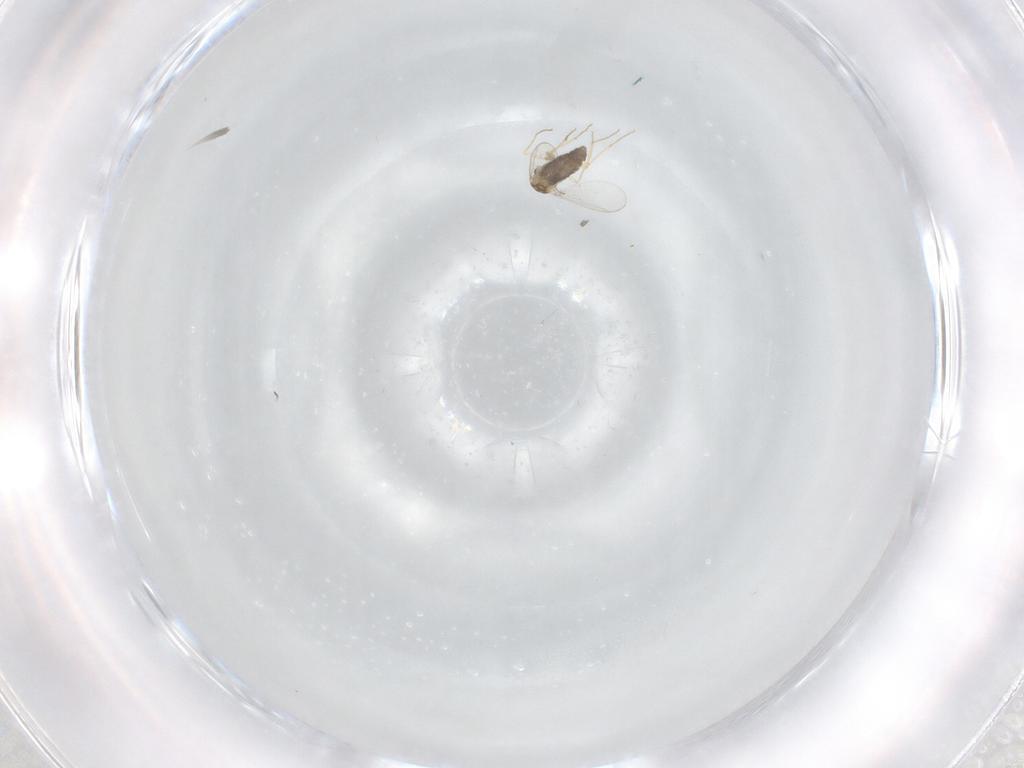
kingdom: Animalia
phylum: Arthropoda
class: Insecta
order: Diptera
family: Chironomidae
